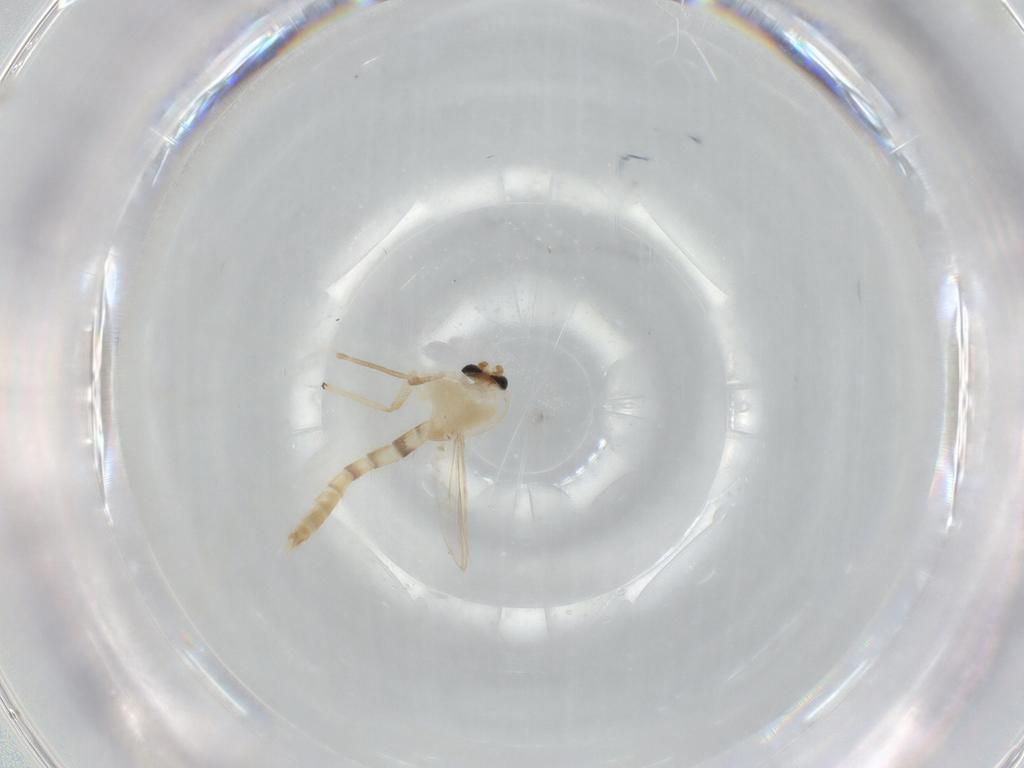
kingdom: Animalia
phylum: Arthropoda
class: Insecta
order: Diptera
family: Chironomidae
